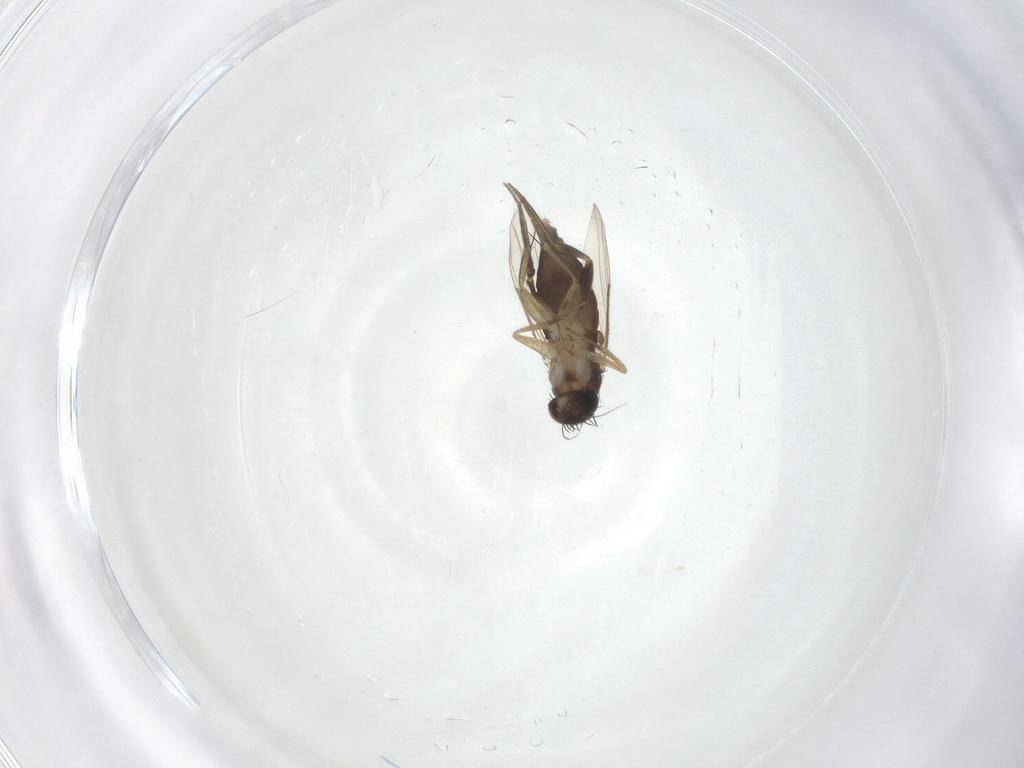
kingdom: Animalia
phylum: Arthropoda
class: Insecta
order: Diptera
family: Phoridae
